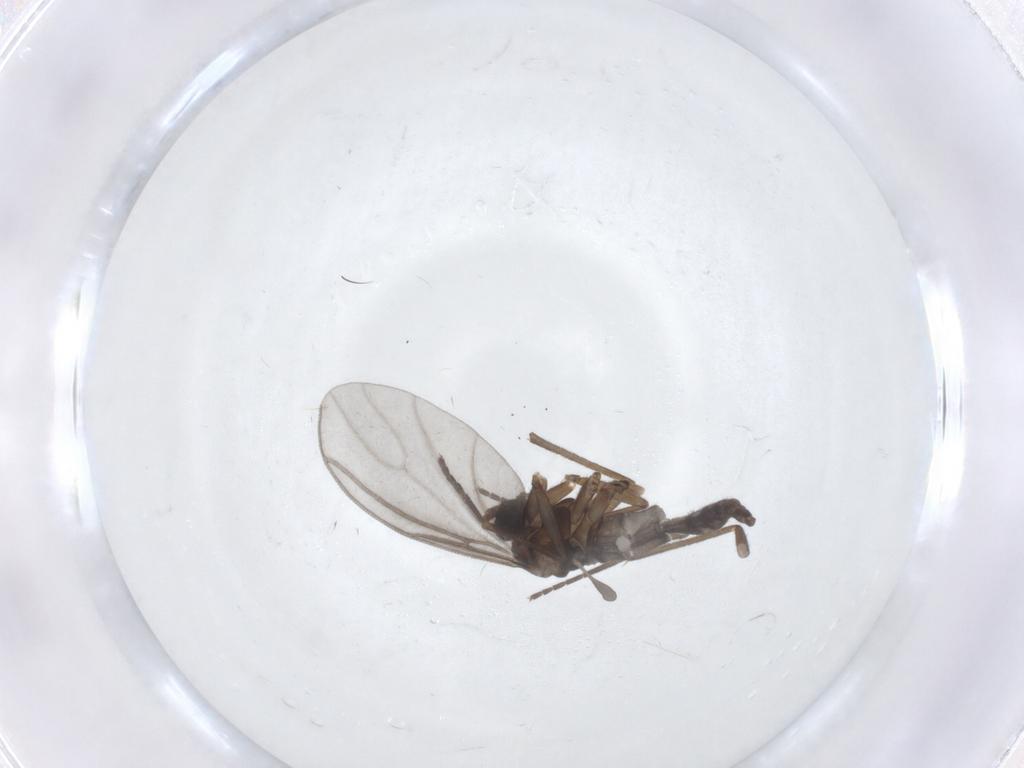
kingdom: Animalia
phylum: Arthropoda
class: Insecta
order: Diptera
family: Sciaridae
